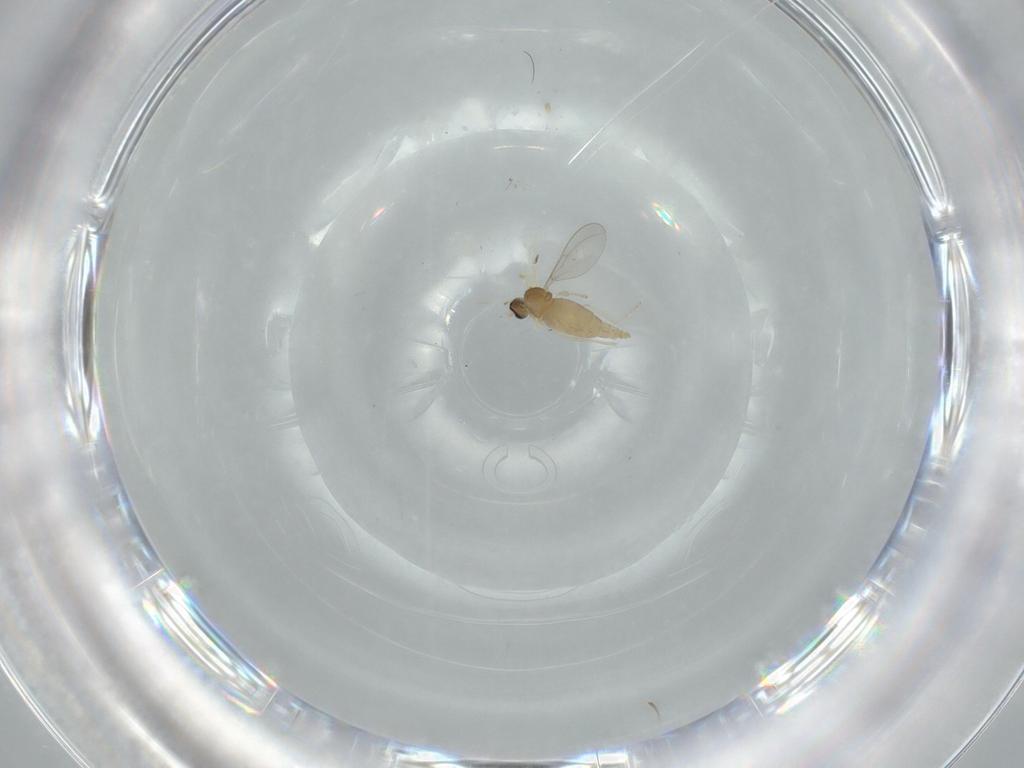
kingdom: Animalia
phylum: Arthropoda
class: Insecta
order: Diptera
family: Cecidomyiidae
